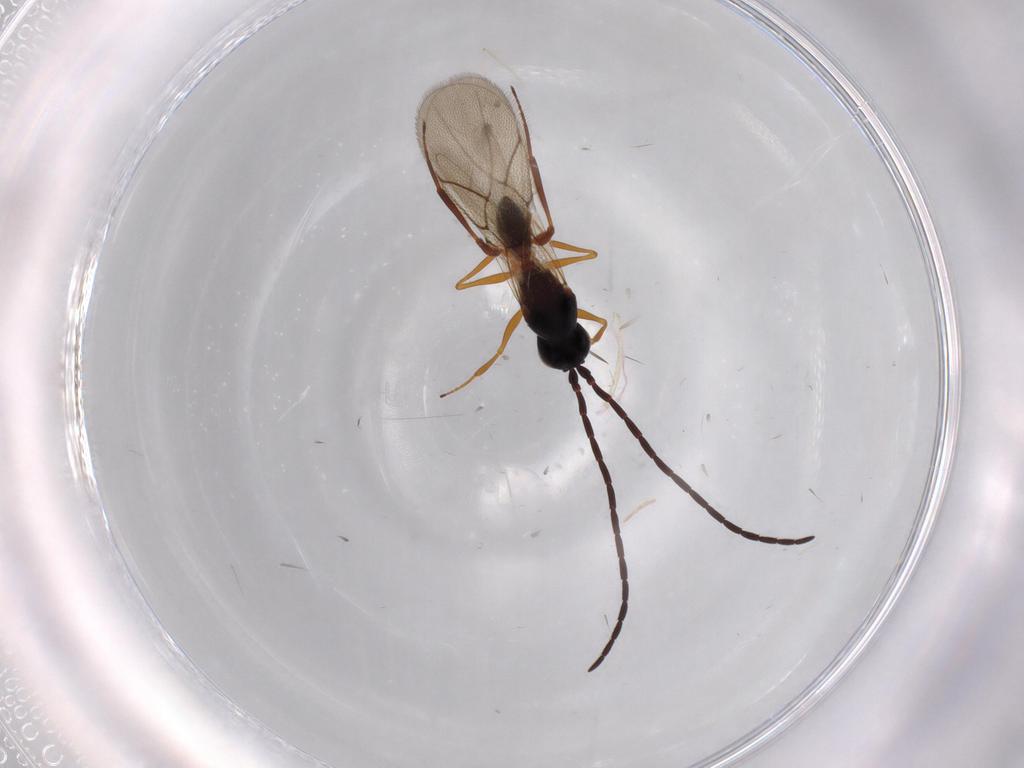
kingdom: Animalia
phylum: Arthropoda
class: Insecta
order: Hymenoptera
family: Figitidae
